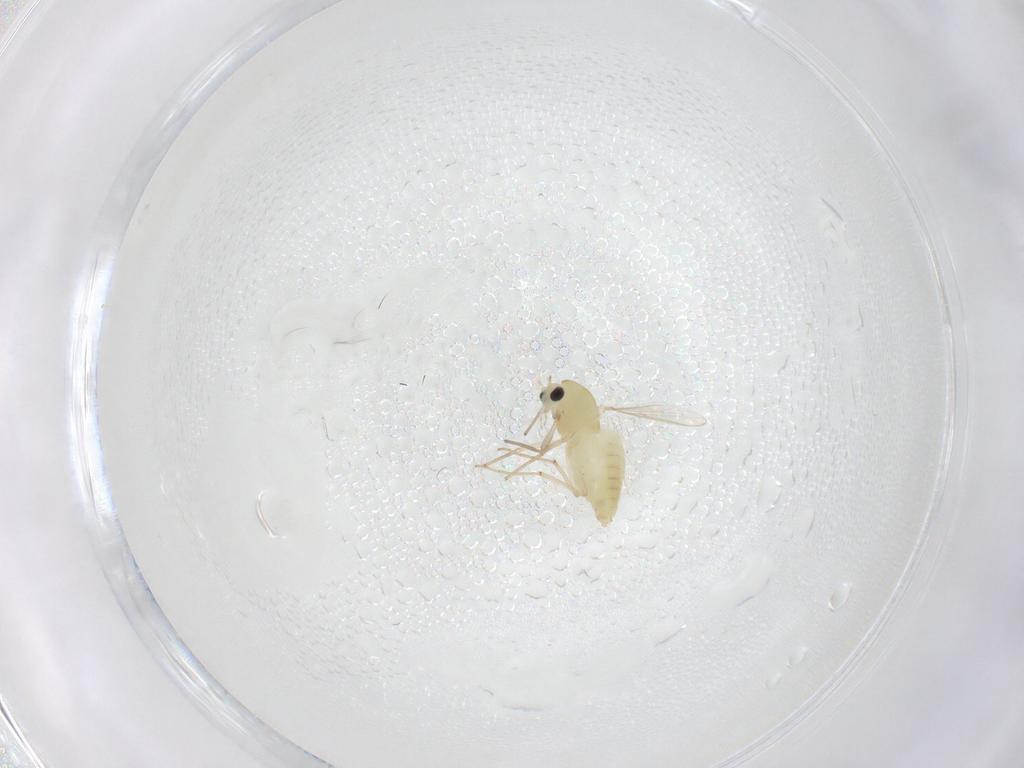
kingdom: Animalia
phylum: Arthropoda
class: Insecta
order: Diptera
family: Chironomidae
